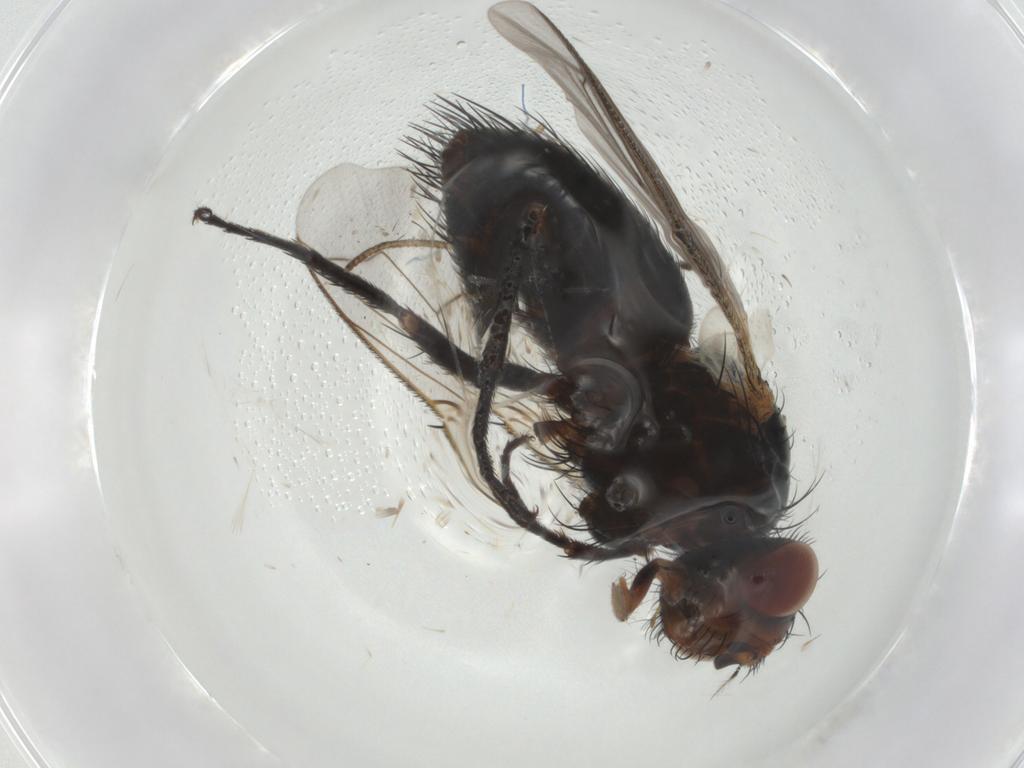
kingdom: Animalia
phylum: Arthropoda
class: Insecta
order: Diptera
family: Tachinidae
